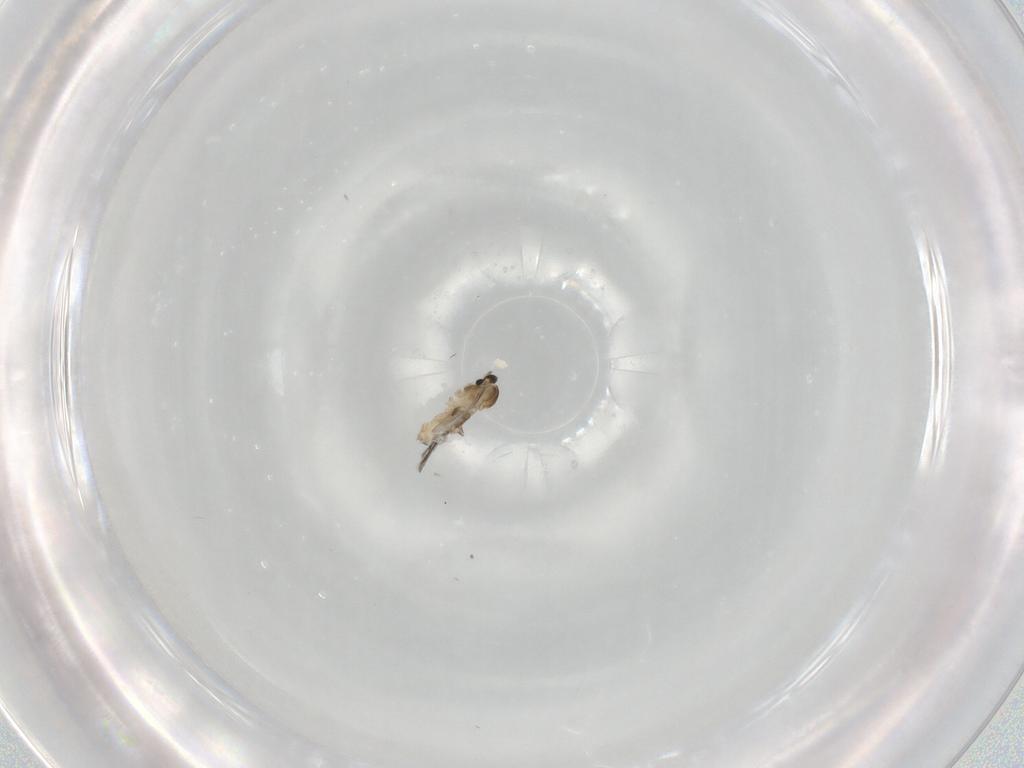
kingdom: Animalia
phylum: Arthropoda
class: Insecta
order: Diptera
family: Cecidomyiidae
